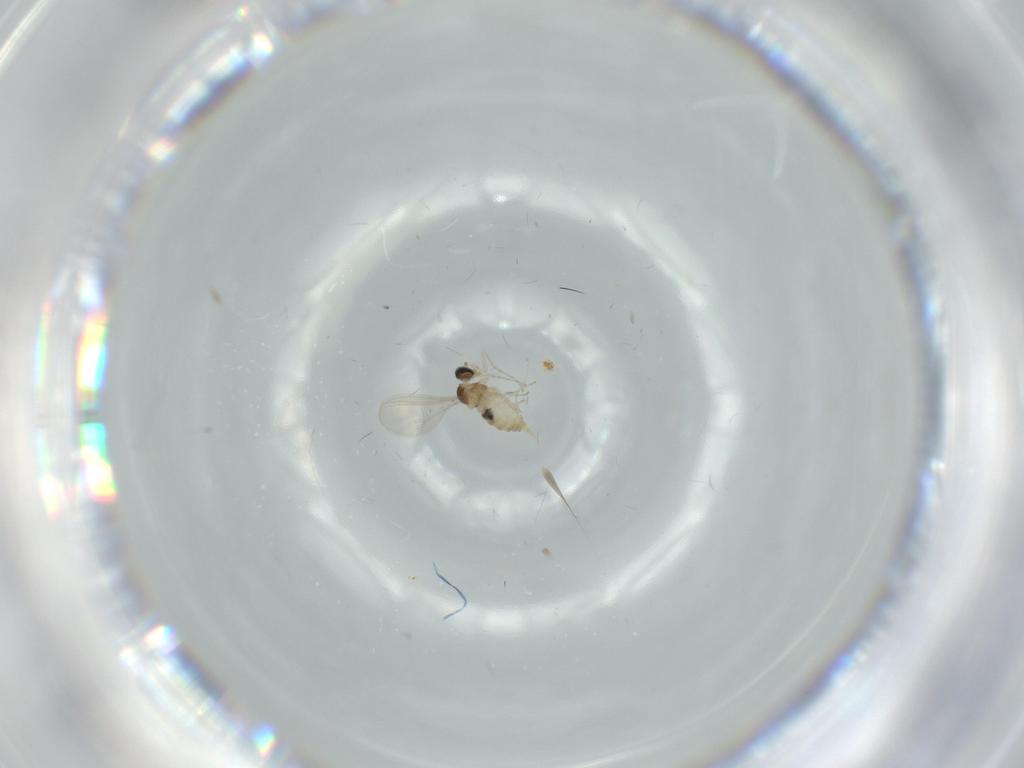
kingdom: Animalia
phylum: Arthropoda
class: Insecta
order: Diptera
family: Cecidomyiidae
